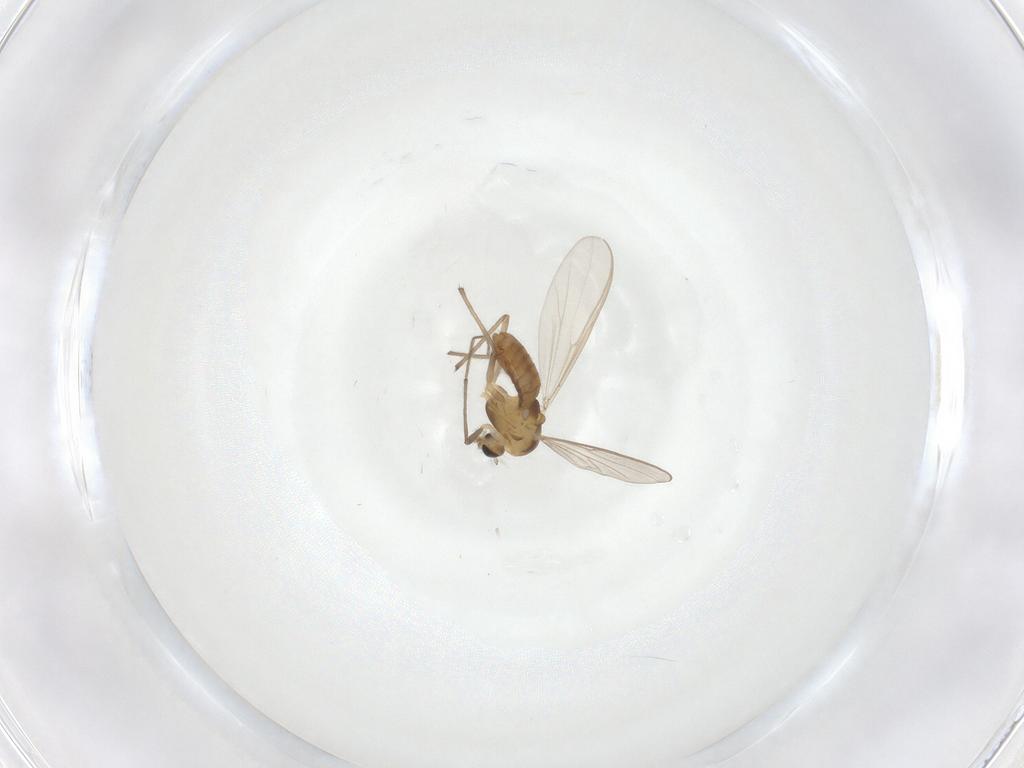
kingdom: Animalia
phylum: Arthropoda
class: Insecta
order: Diptera
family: Chironomidae
